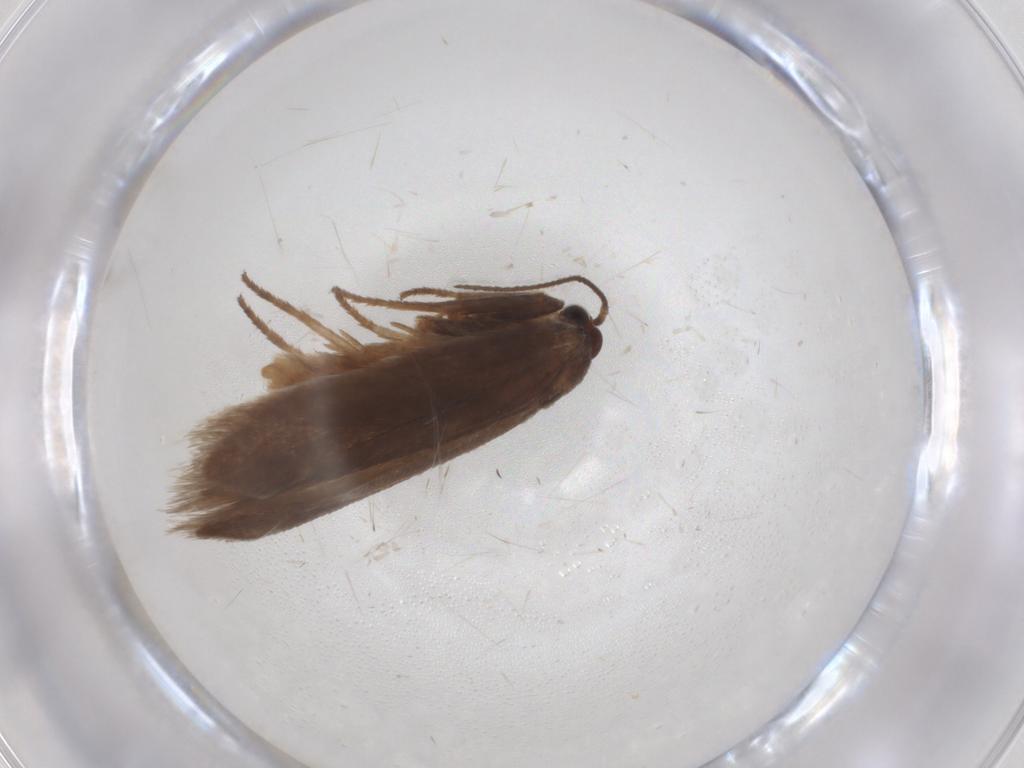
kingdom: Animalia
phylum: Arthropoda
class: Insecta
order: Lepidoptera
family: Limacodidae
